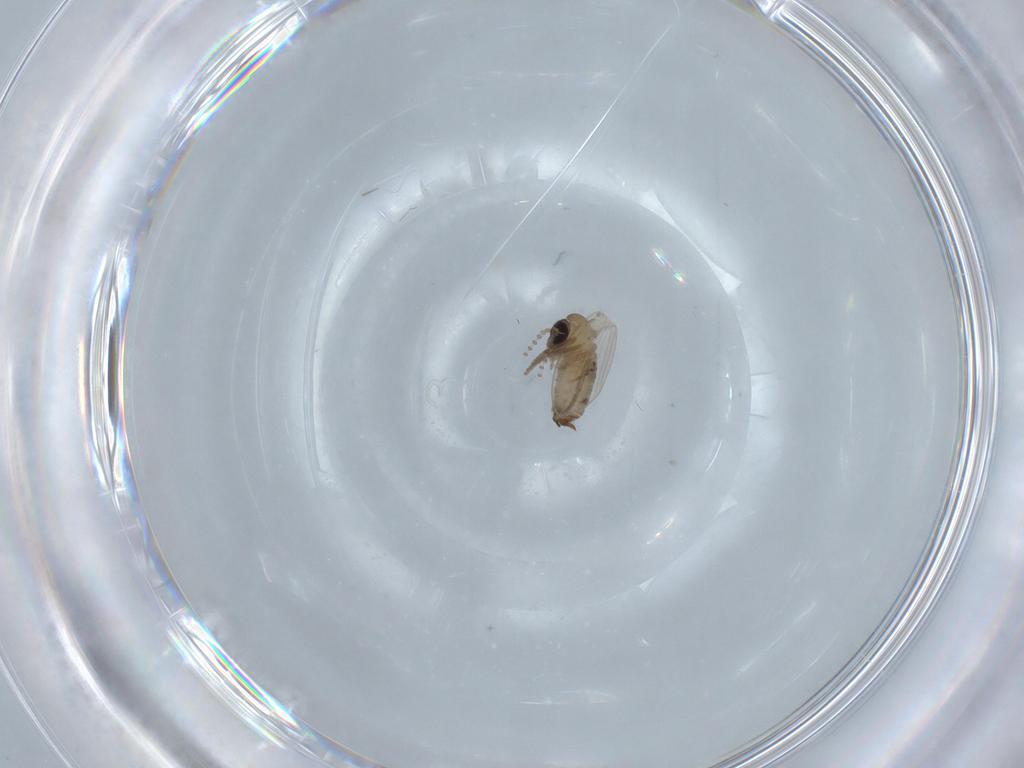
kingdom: Animalia
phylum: Arthropoda
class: Insecta
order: Diptera
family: Psychodidae
